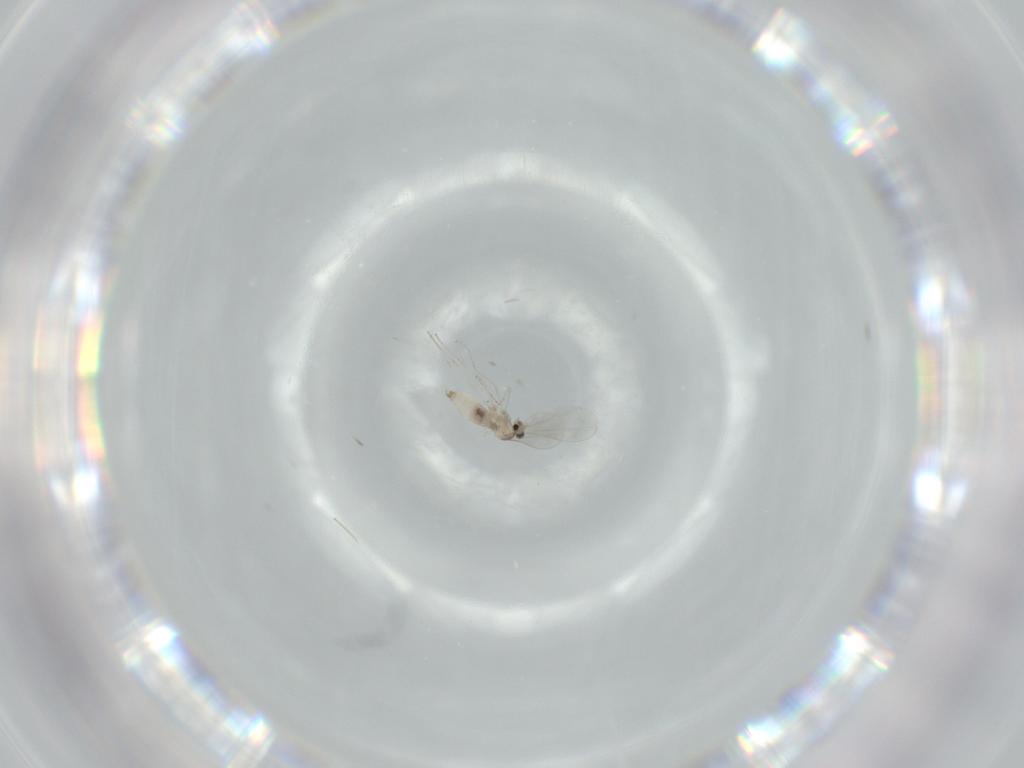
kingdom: Animalia
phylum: Arthropoda
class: Insecta
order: Diptera
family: Cecidomyiidae
